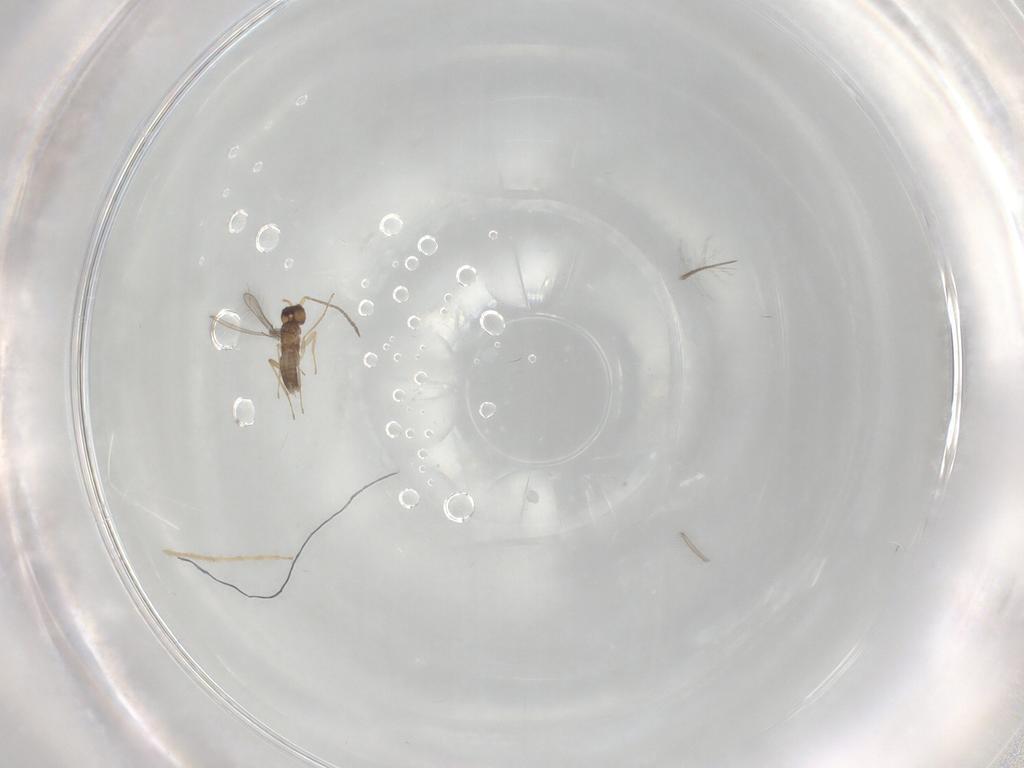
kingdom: Animalia
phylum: Arthropoda
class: Insecta
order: Diptera
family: Chironomidae
